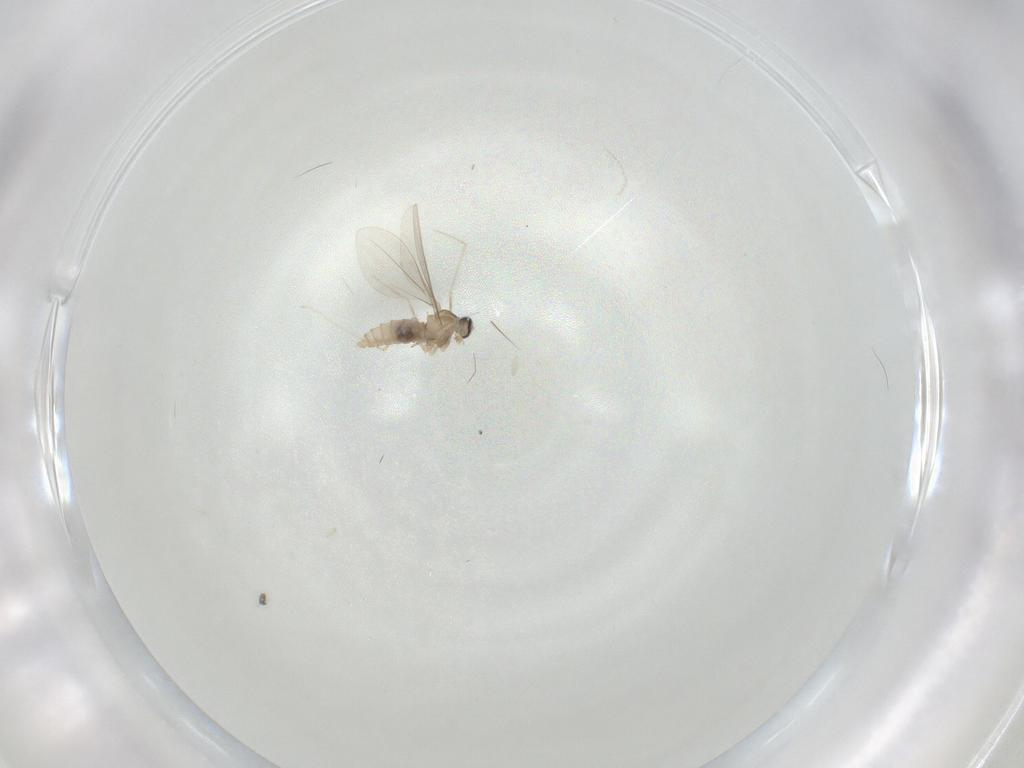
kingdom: Animalia
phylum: Arthropoda
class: Insecta
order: Diptera
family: Cecidomyiidae
